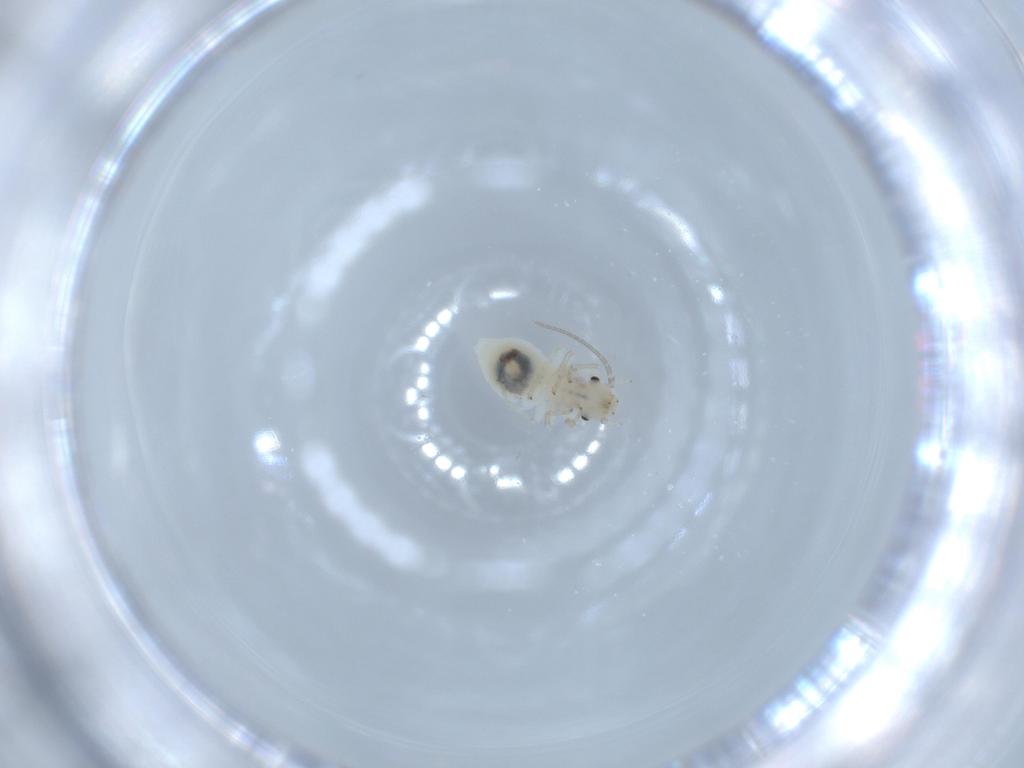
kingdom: Animalia
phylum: Arthropoda
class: Insecta
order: Psocodea
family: Caeciliusidae
